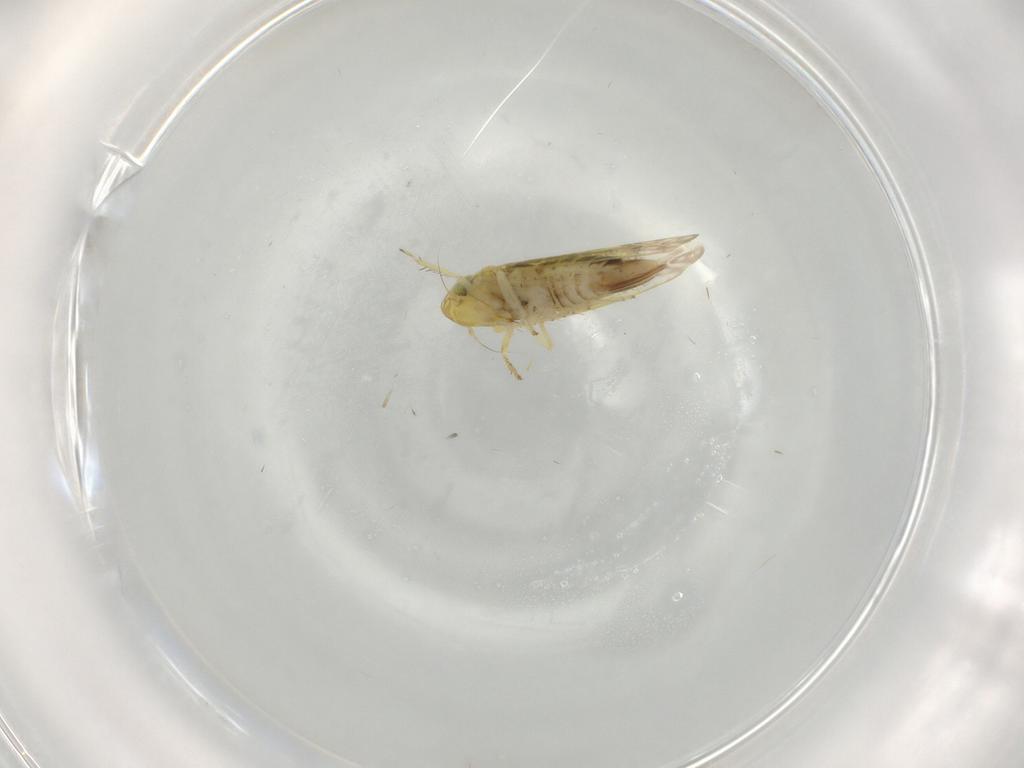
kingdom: Animalia
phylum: Arthropoda
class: Insecta
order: Hemiptera
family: Cicadellidae
